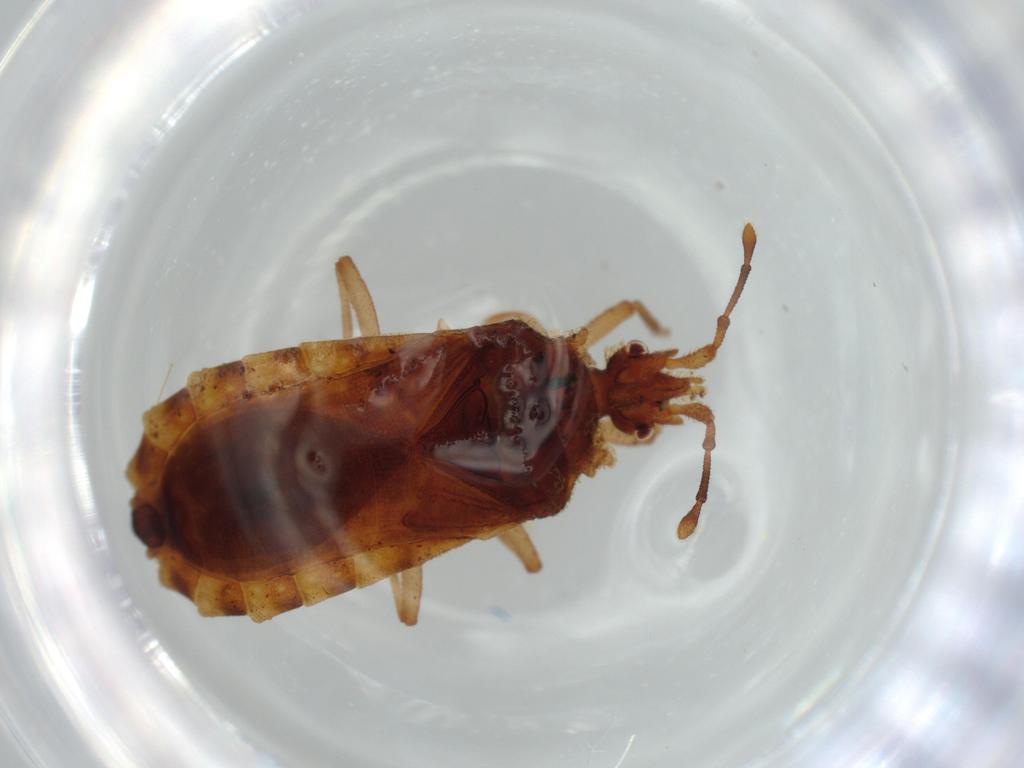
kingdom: Animalia
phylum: Arthropoda
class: Insecta
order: Hemiptera
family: Aradidae
